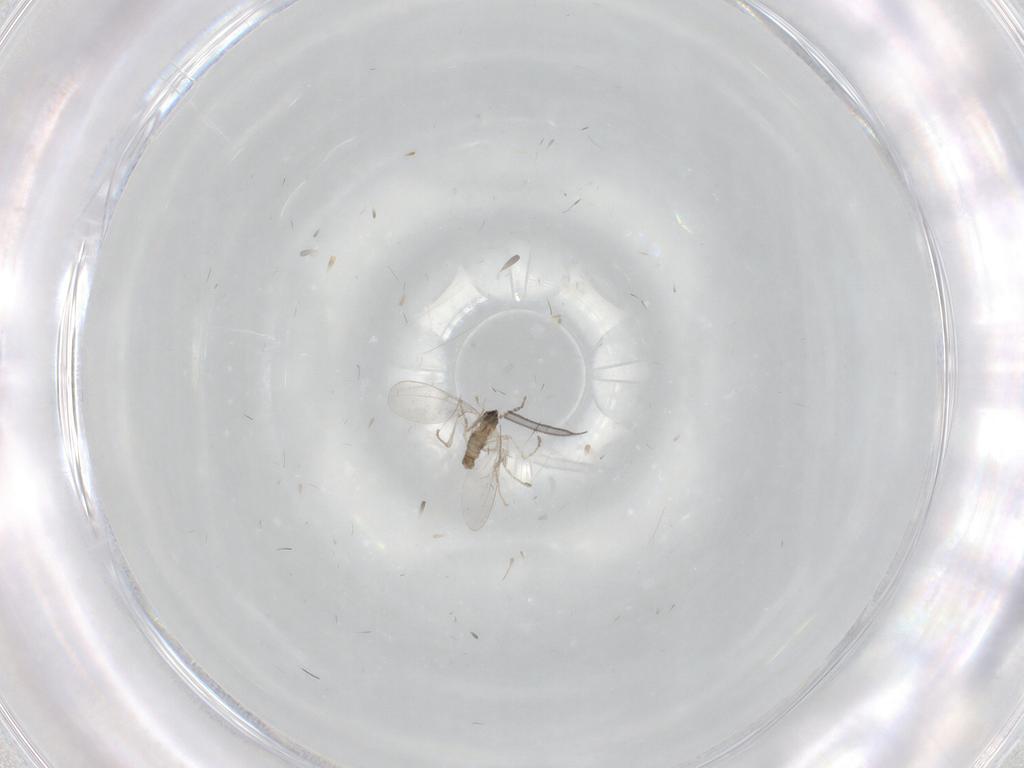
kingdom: Animalia
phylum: Arthropoda
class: Insecta
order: Diptera
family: Cecidomyiidae
